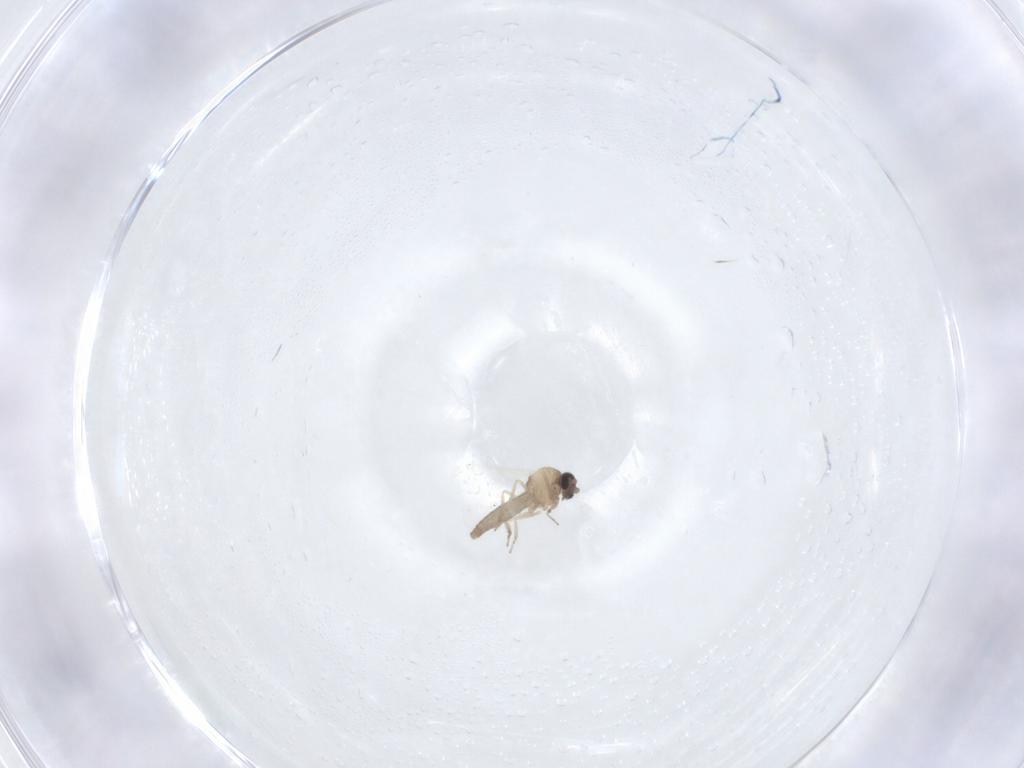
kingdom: Animalia
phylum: Arthropoda
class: Insecta
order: Diptera
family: Ceratopogonidae
